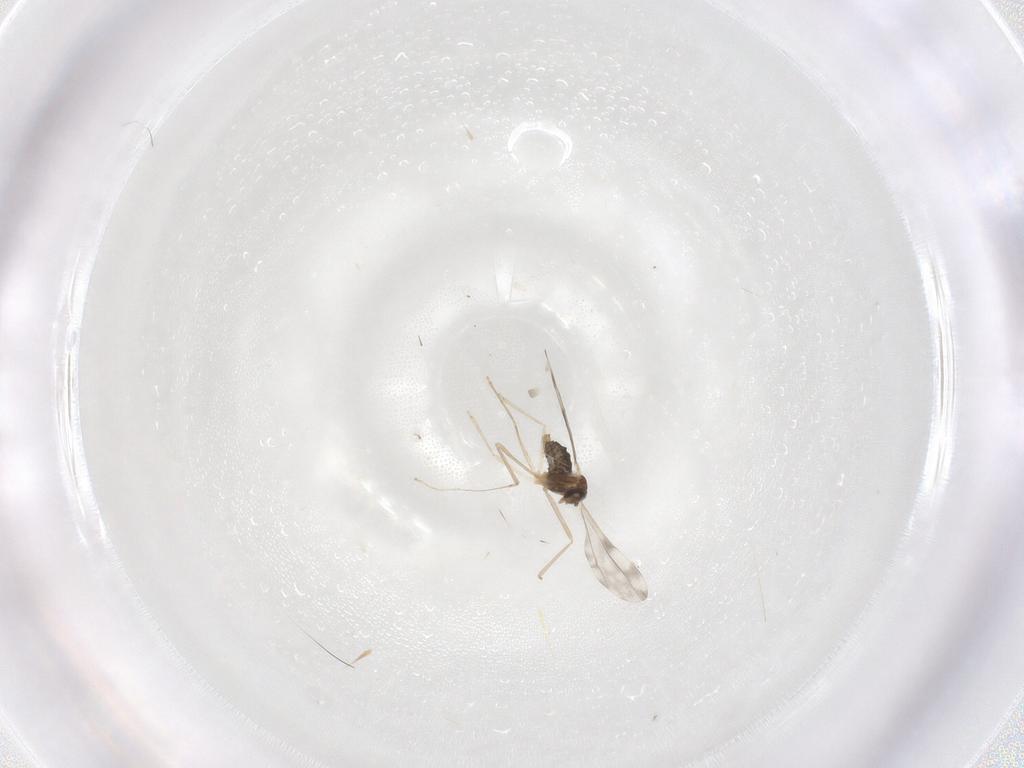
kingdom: Animalia
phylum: Arthropoda
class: Insecta
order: Diptera
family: Cecidomyiidae
